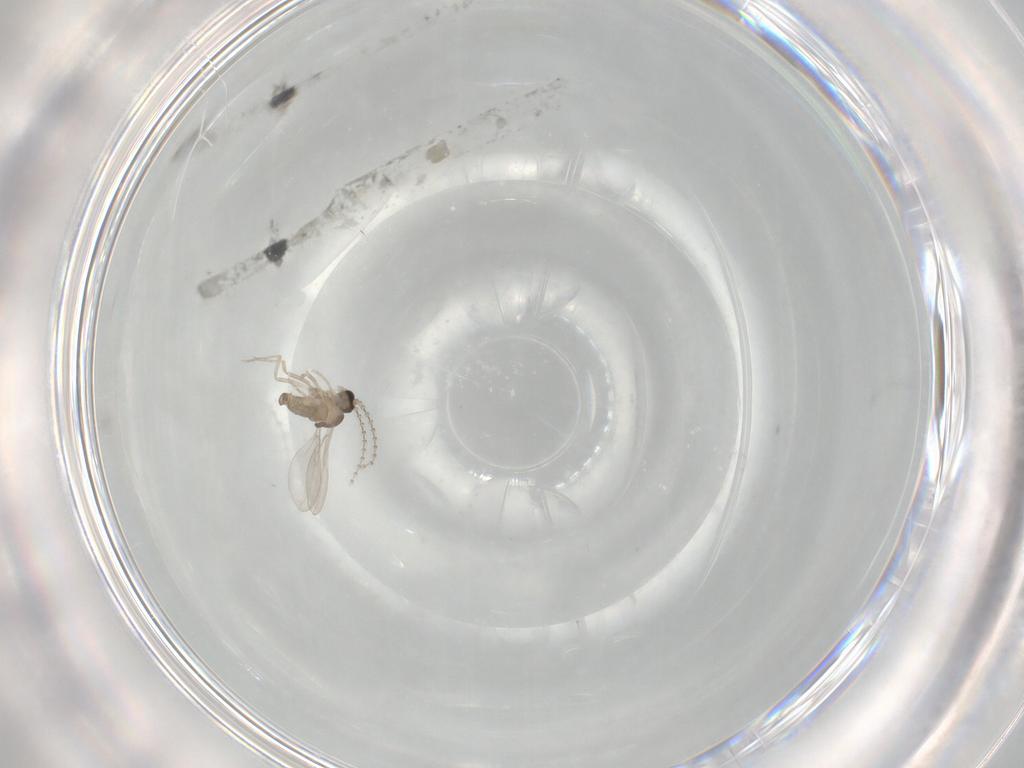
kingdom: Animalia
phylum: Arthropoda
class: Insecta
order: Diptera
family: Cecidomyiidae
